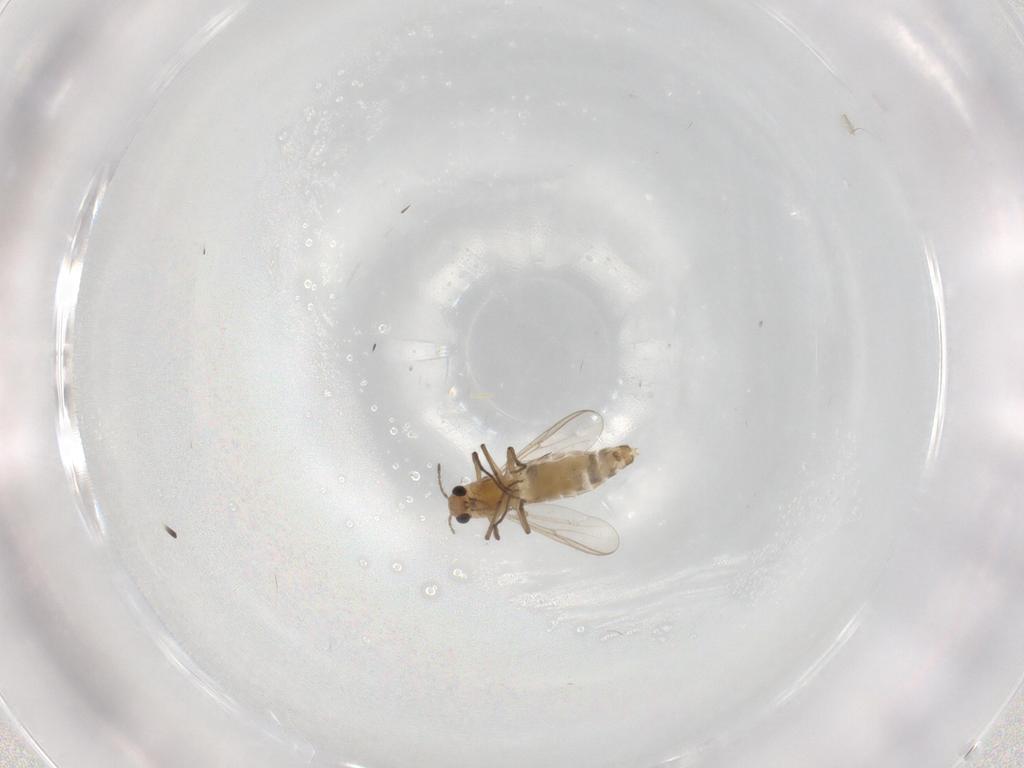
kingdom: Animalia
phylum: Arthropoda
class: Insecta
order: Diptera
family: Chironomidae
